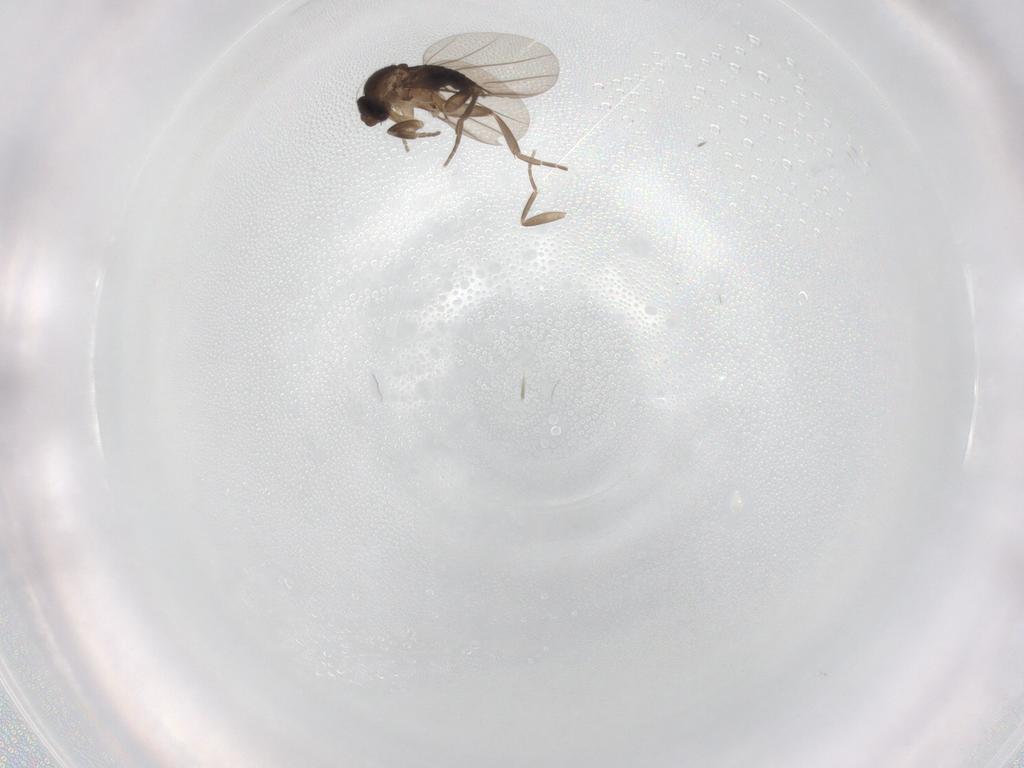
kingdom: Animalia
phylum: Arthropoda
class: Insecta
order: Diptera
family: Phoridae
